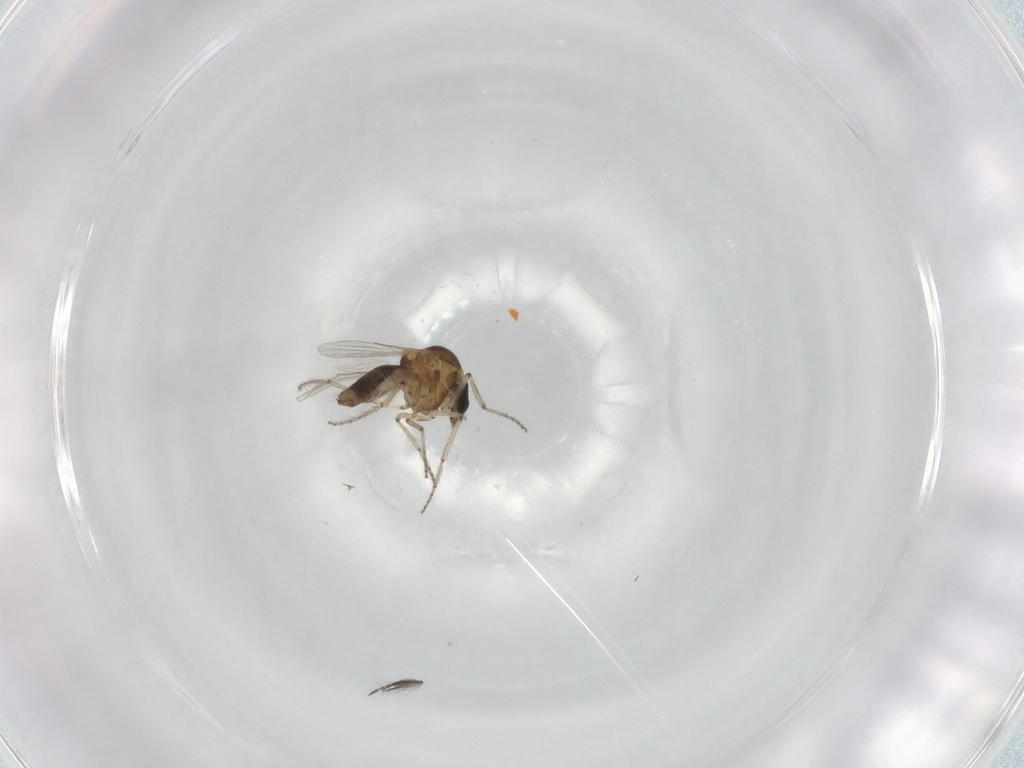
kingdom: Animalia
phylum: Arthropoda
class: Insecta
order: Diptera
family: Ceratopogonidae
